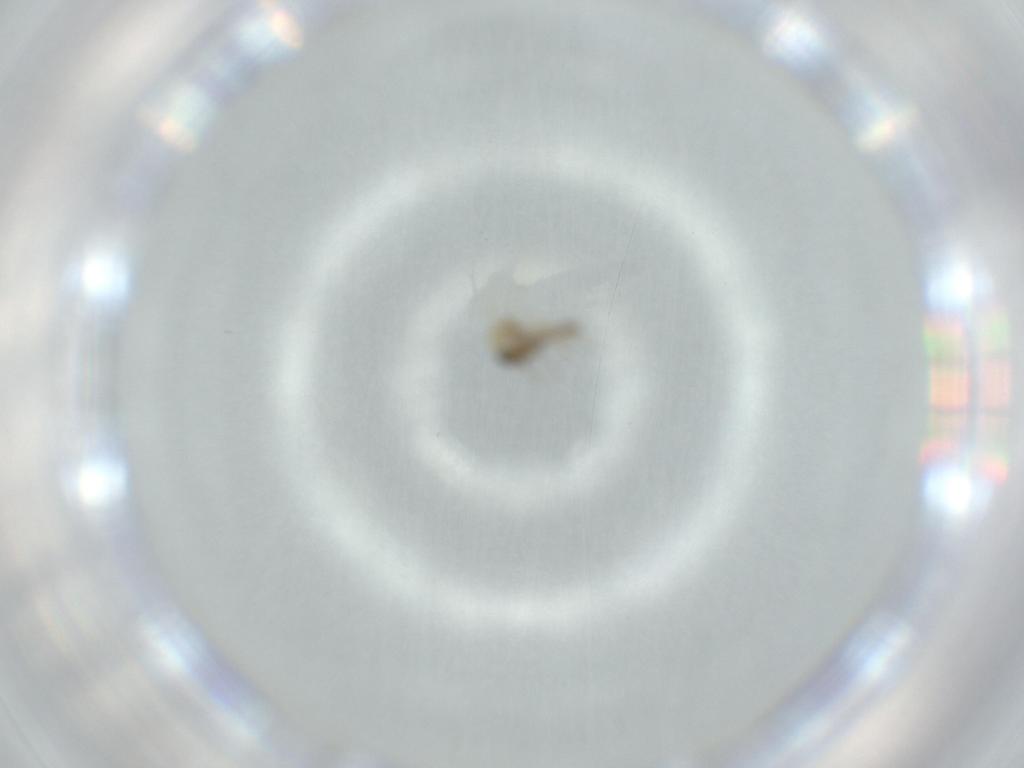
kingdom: Animalia
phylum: Arthropoda
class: Insecta
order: Diptera
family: Ceratopogonidae
